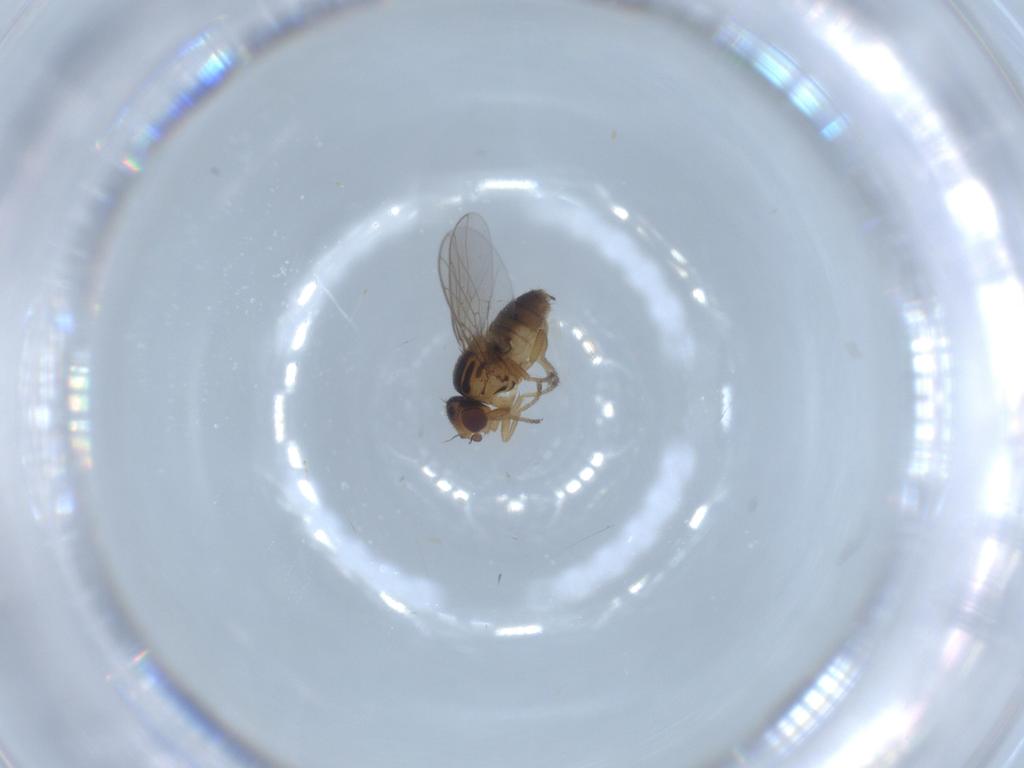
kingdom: Animalia
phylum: Arthropoda
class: Insecta
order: Diptera
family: Chloropidae
